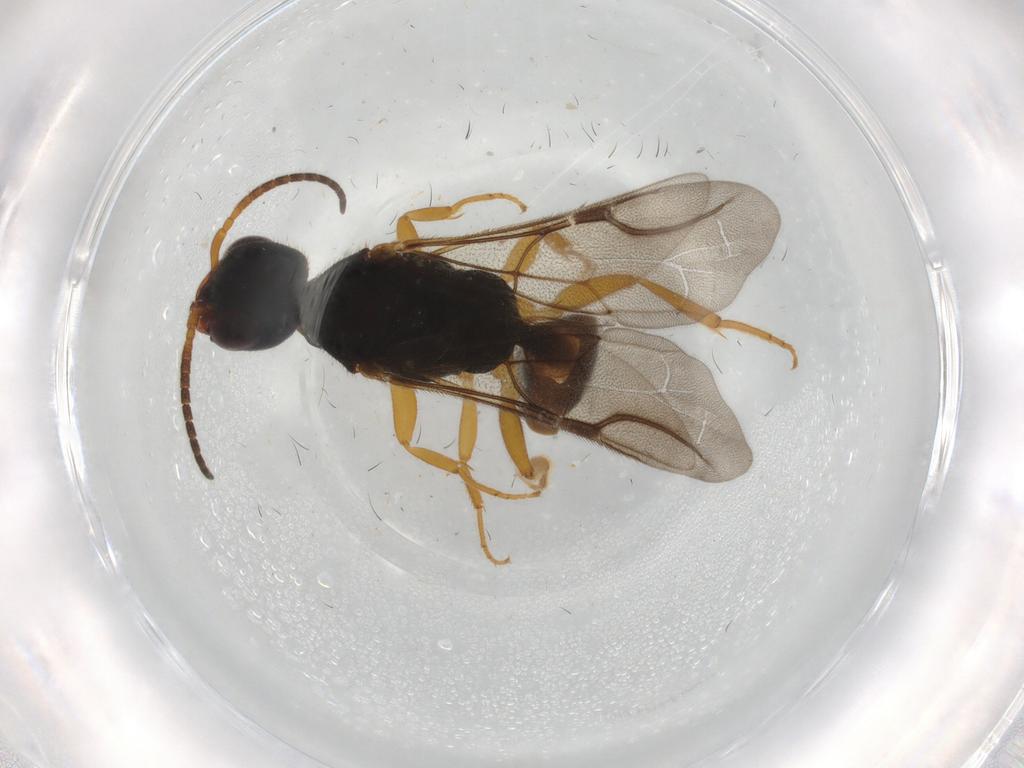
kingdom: Animalia
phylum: Arthropoda
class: Insecta
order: Hymenoptera
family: Bethylidae
